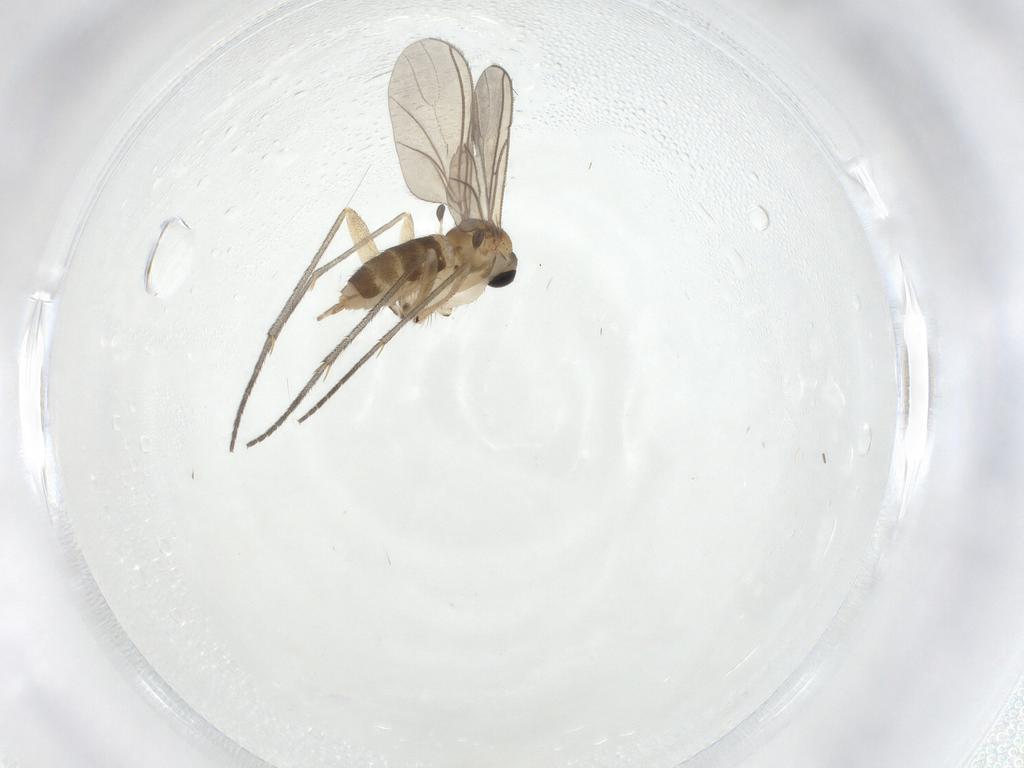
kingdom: Animalia
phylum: Arthropoda
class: Insecta
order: Diptera
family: Sciaridae
